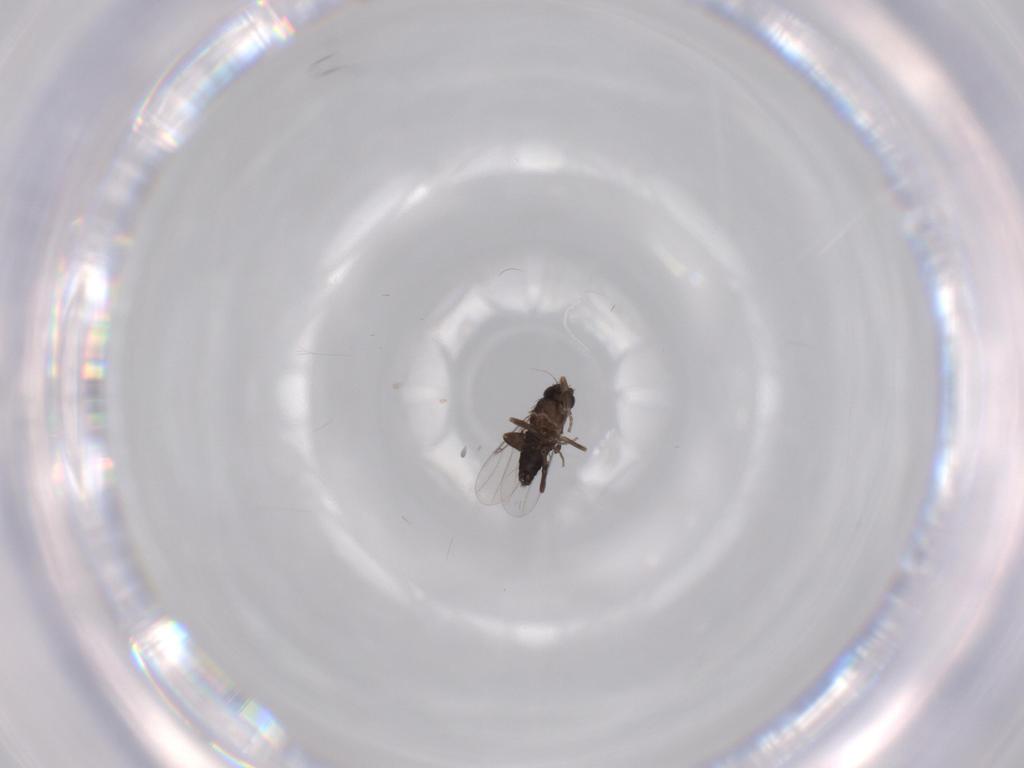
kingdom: Animalia
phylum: Arthropoda
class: Insecta
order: Diptera
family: Phoridae
